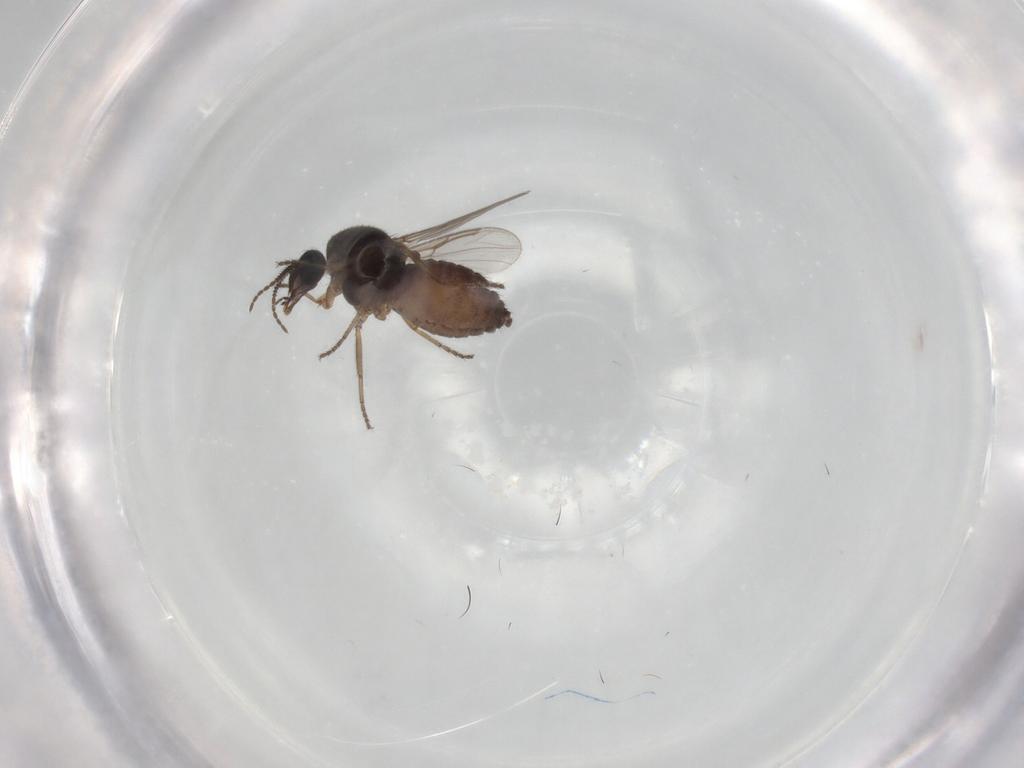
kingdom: Animalia
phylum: Arthropoda
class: Insecta
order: Diptera
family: Ceratopogonidae
